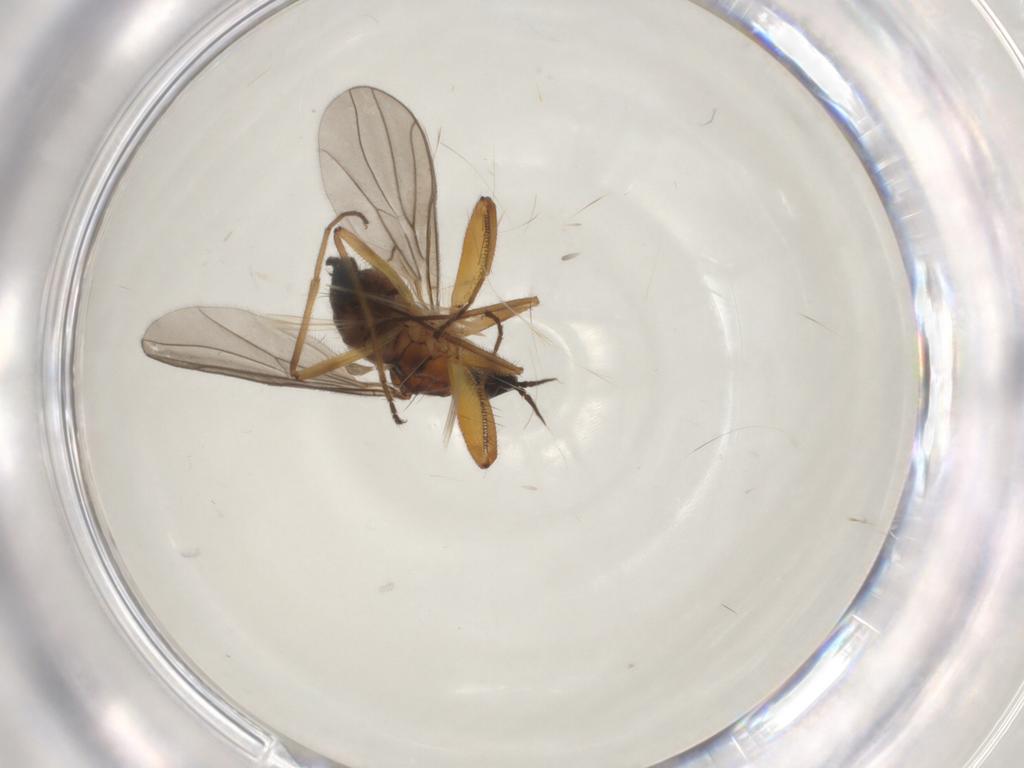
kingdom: Animalia
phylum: Arthropoda
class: Insecta
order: Diptera
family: Hybotidae
